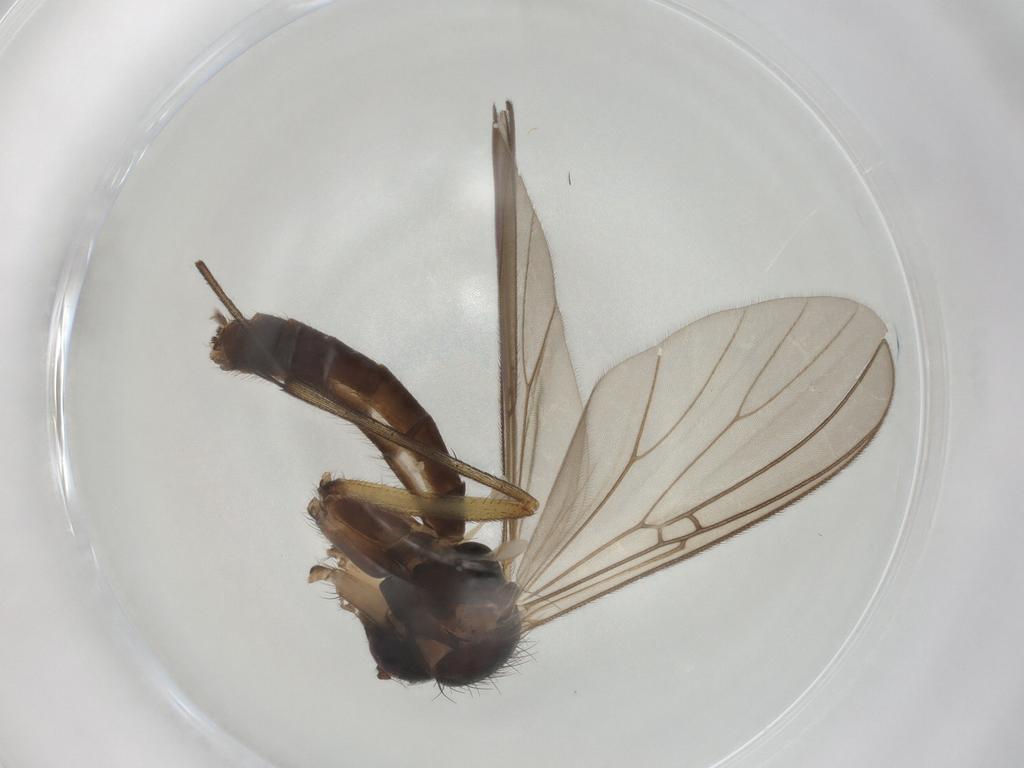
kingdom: Animalia
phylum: Arthropoda
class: Insecta
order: Diptera
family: Mycetophilidae
